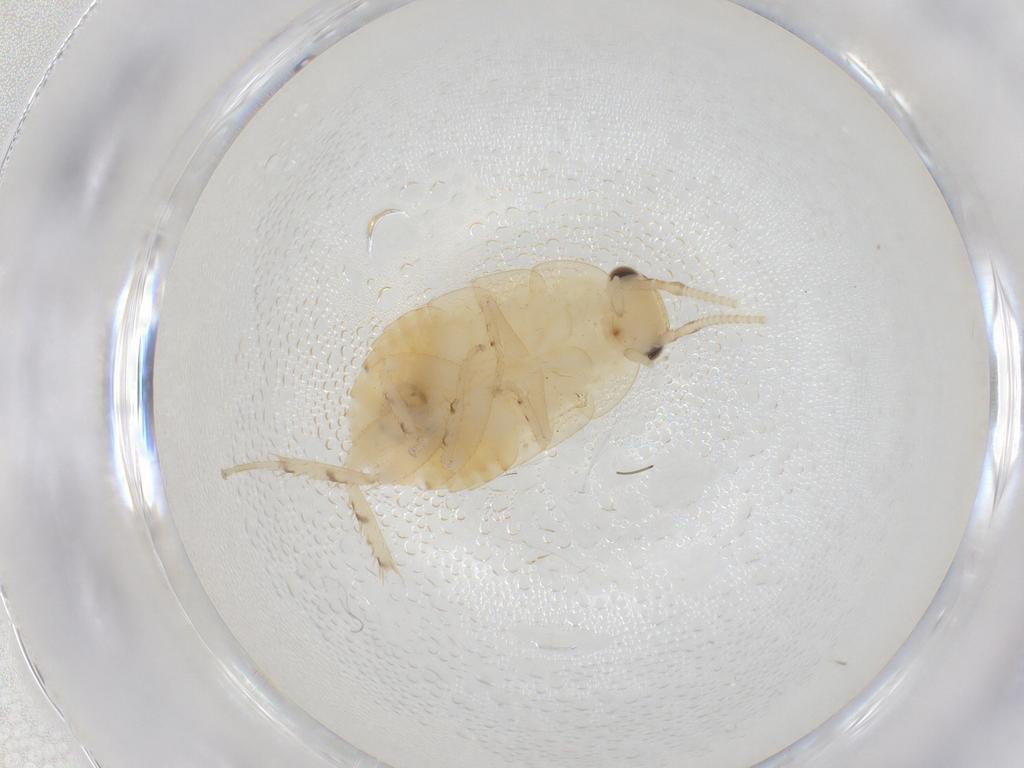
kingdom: Animalia
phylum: Arthropoda
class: Insecta
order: Blattodea
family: Ectobiidae
